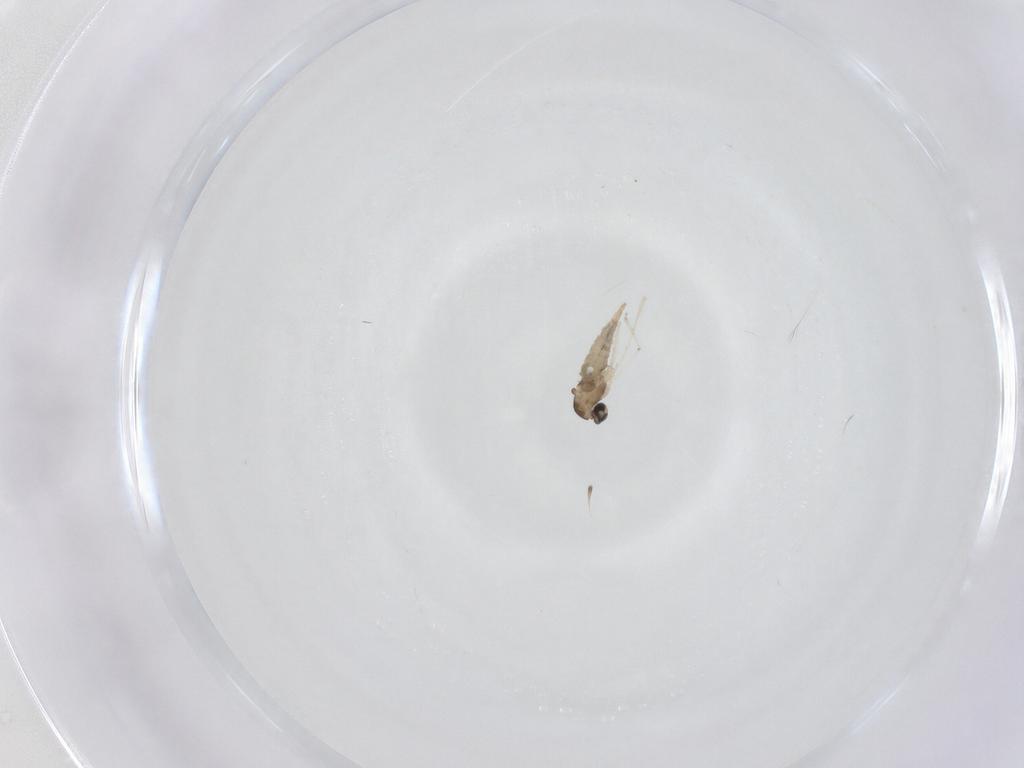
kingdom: Animalia
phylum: Arthropoda
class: Insecta
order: Diptera
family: Psychodidae
